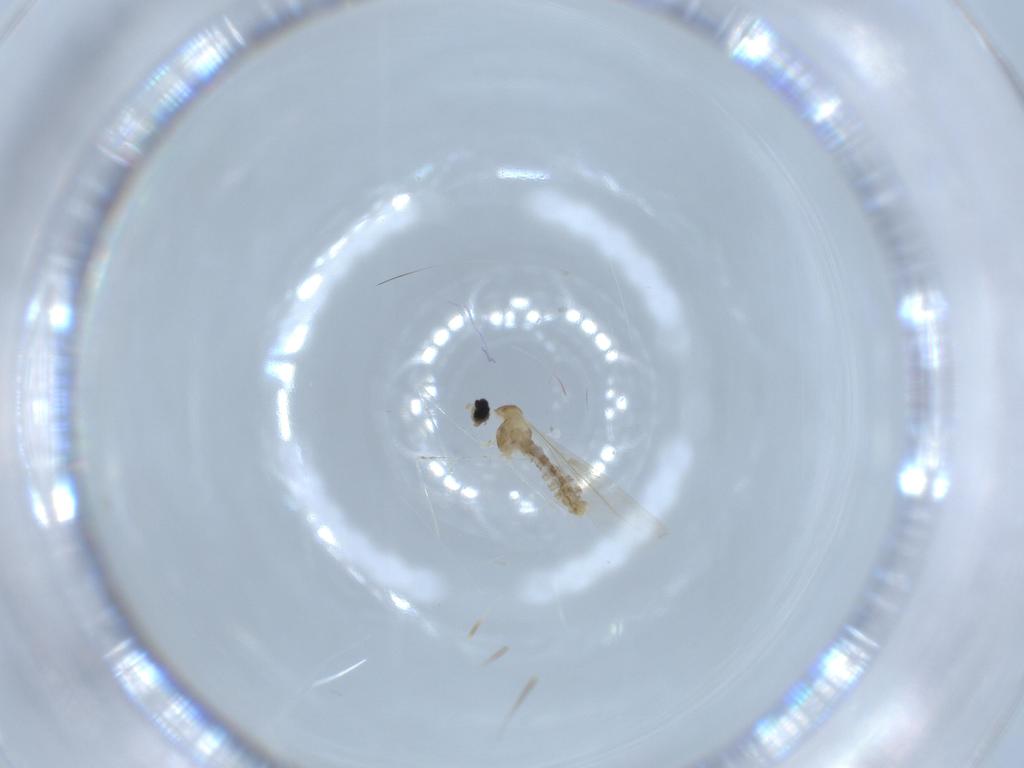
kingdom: Animalia
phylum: Arthropoda
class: Insecta
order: Diptera
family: Cecidomyiidae
